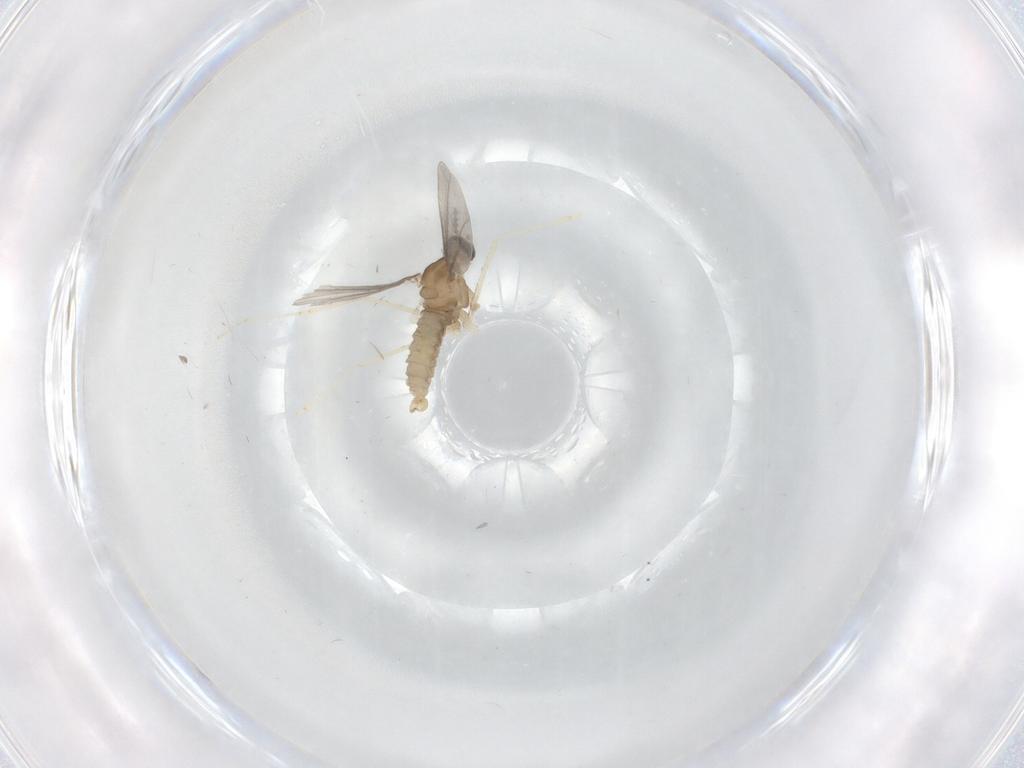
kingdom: Animalia
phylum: Arthropoda
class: Insecta
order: Diptera
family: Cecidomyiidae
